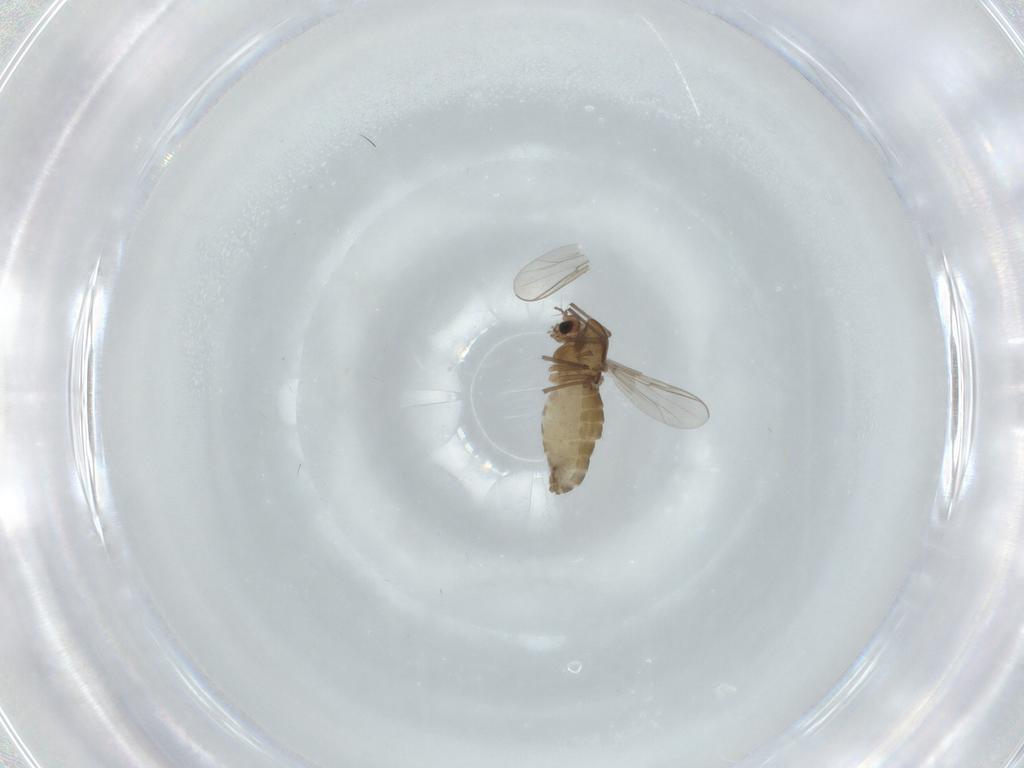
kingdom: Animalia
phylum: Arthropoda
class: Insecta
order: Diptera
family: Chironomidae
